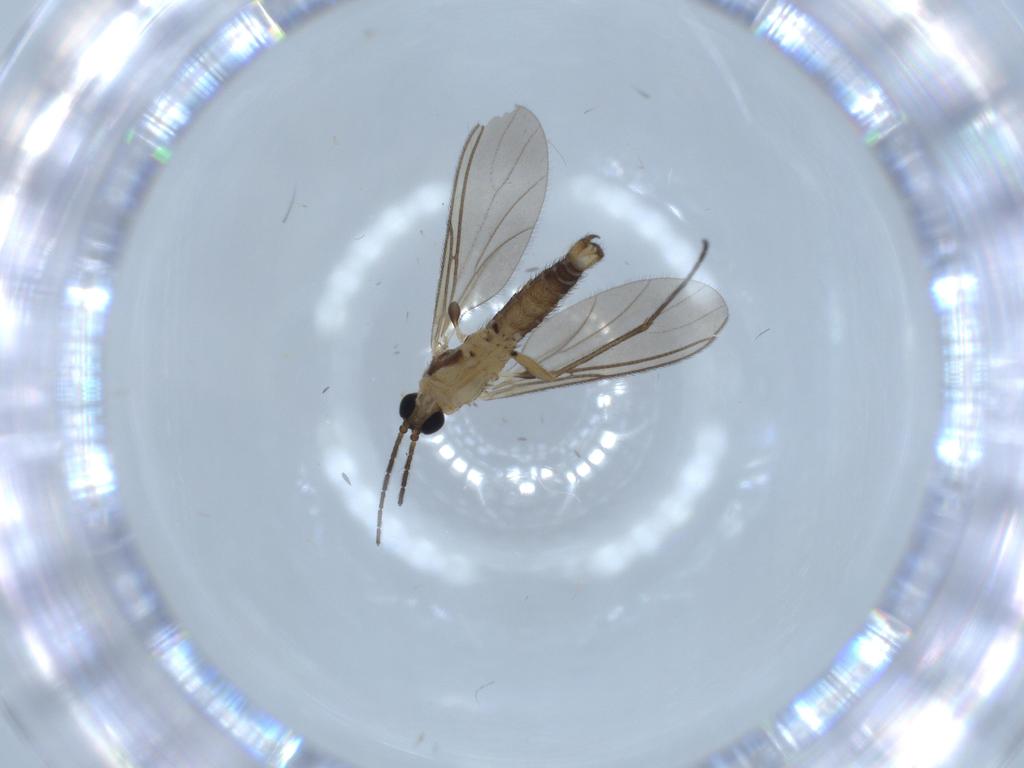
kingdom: Animalia
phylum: Arthropoda
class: Insecta
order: Diptera
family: Sciaridae
